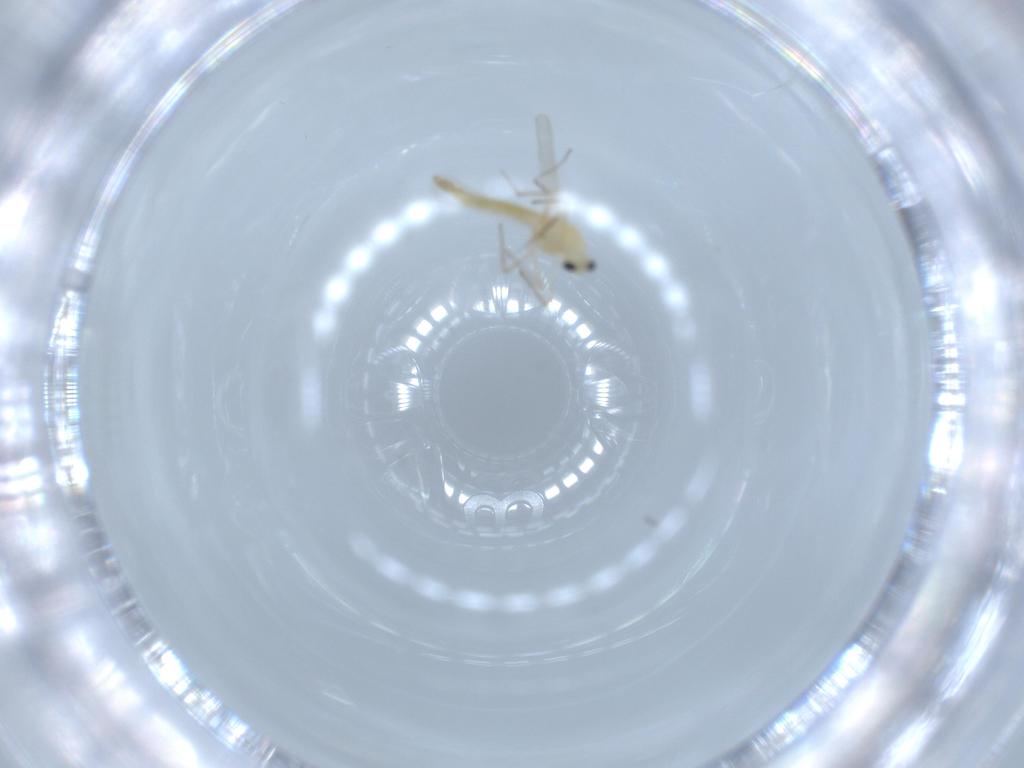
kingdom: Animalia
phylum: Arthropoda
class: Insecta
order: Diptera
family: Chironomidae
